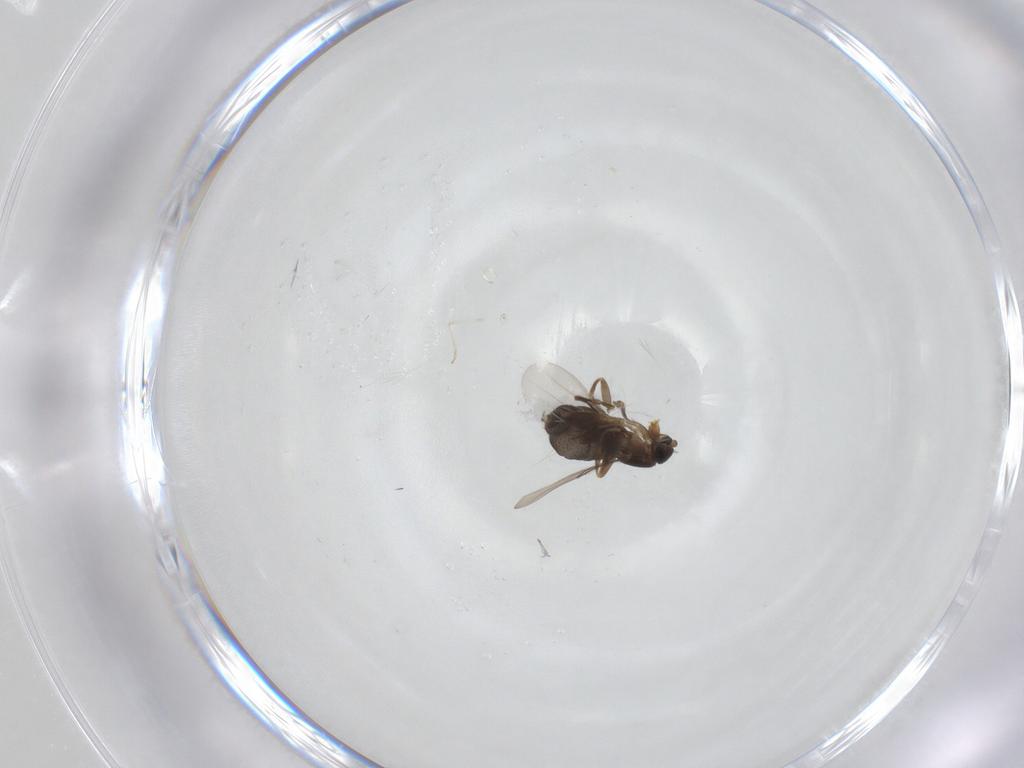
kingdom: Animalia
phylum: Arthropoda
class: Insecta
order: Diptera
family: Phoridae
